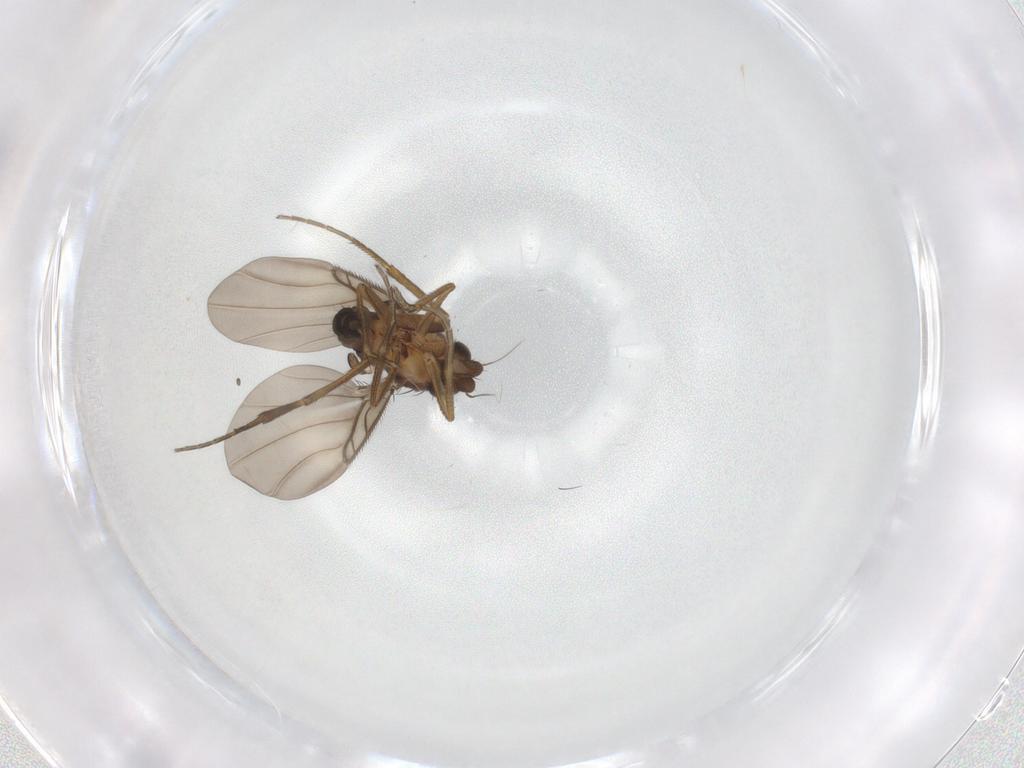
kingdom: Animalia
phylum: Arthropoda
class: Insecta
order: Diptera
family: Phoridae
